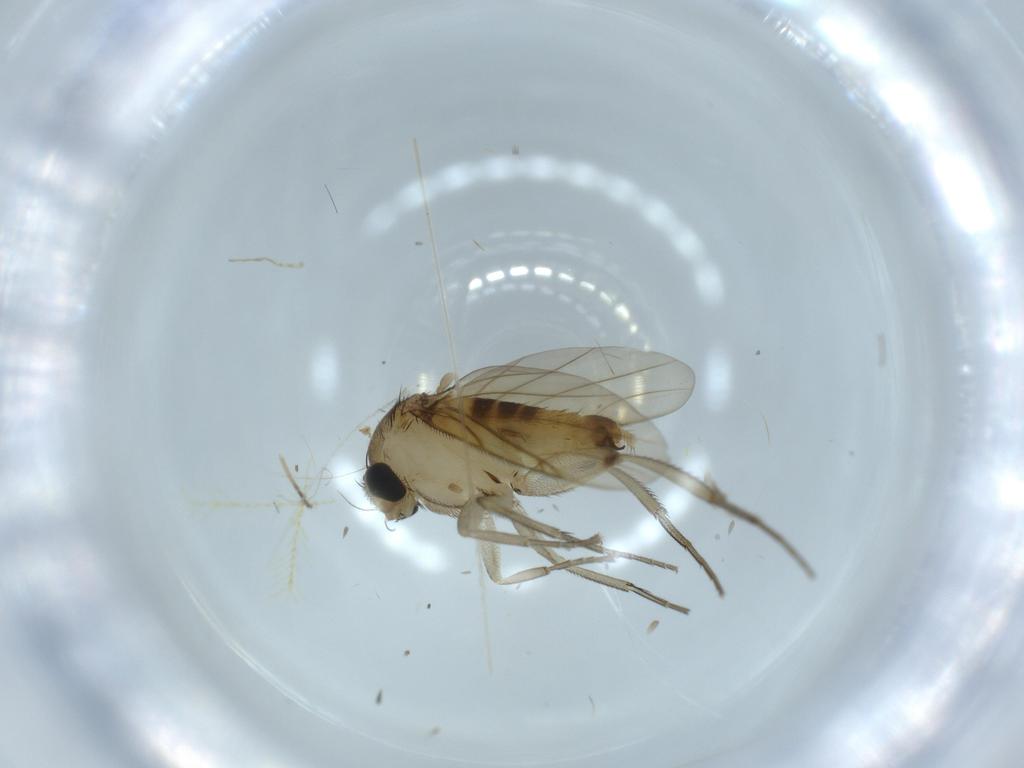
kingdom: Animalia
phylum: Arthropoda
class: Insecta
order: Diptera
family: Phoridae
